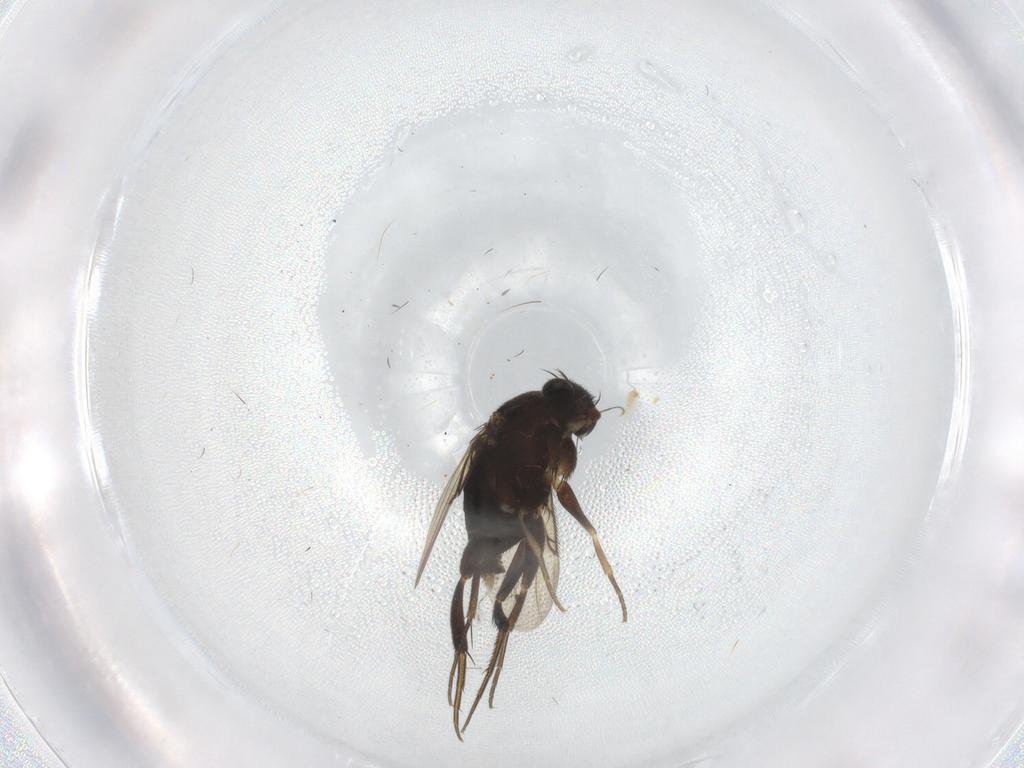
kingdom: Animalia
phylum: Arthropoda
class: Insecta
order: Diptera
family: Phoridae
